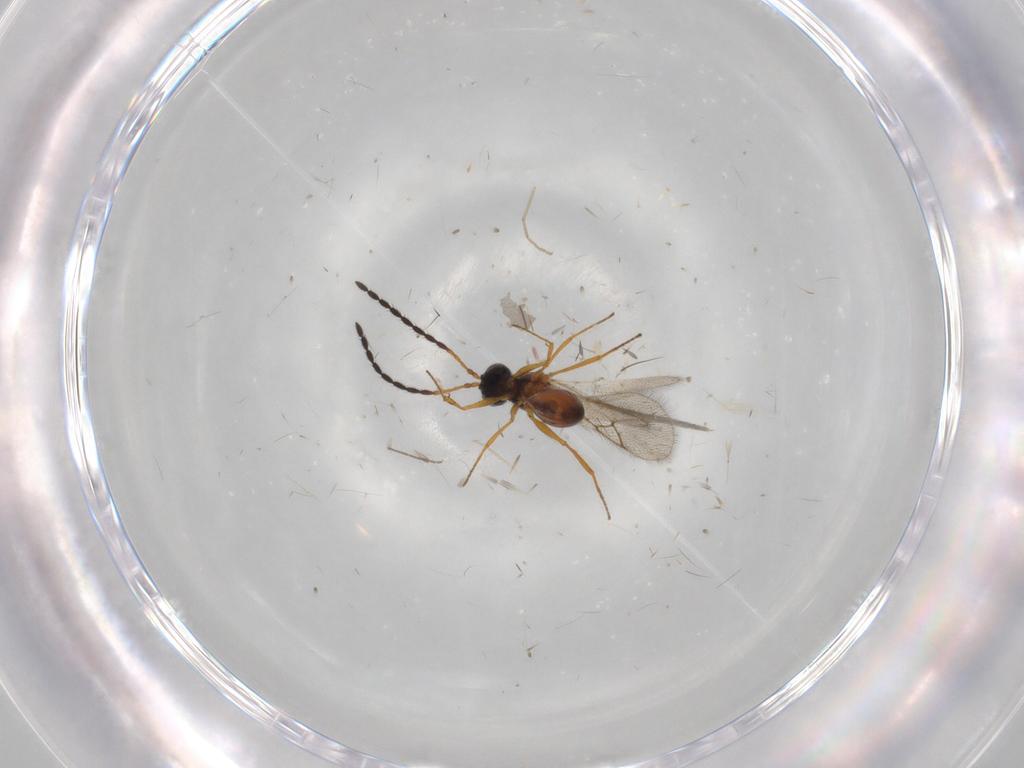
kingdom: Animalia
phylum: Arthropoda
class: Insecta
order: Hymenoptera
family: Figitidae
